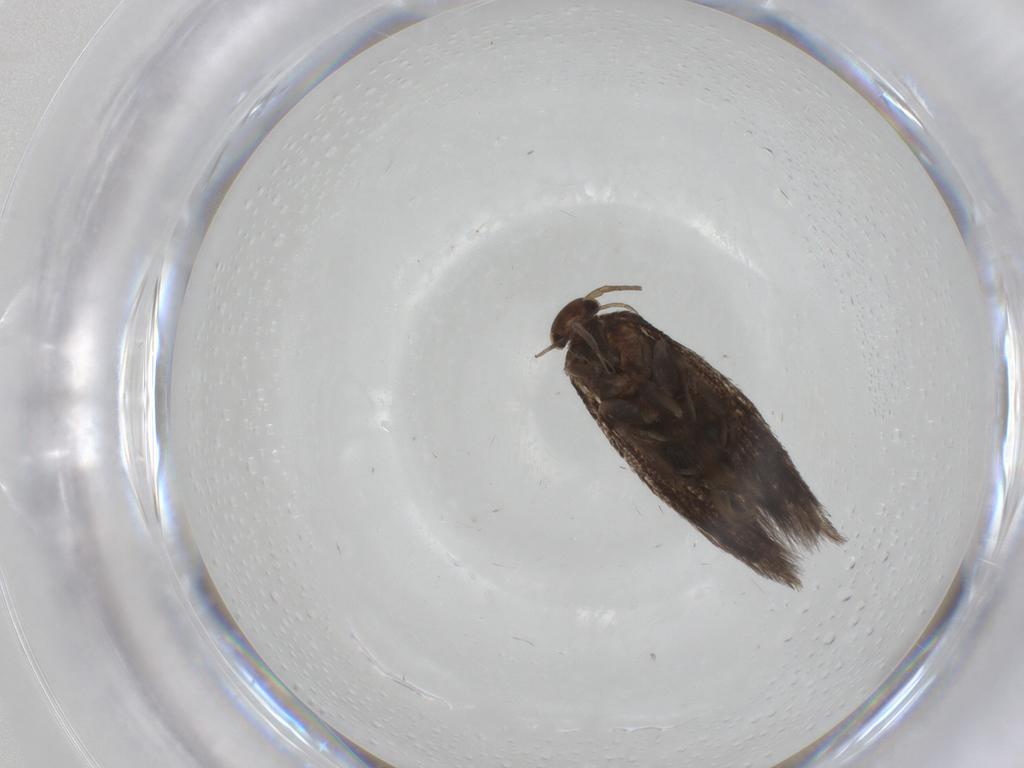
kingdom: Animalia
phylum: Arthropoda
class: Insecta
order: Lepidoptera
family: Elachistidae
